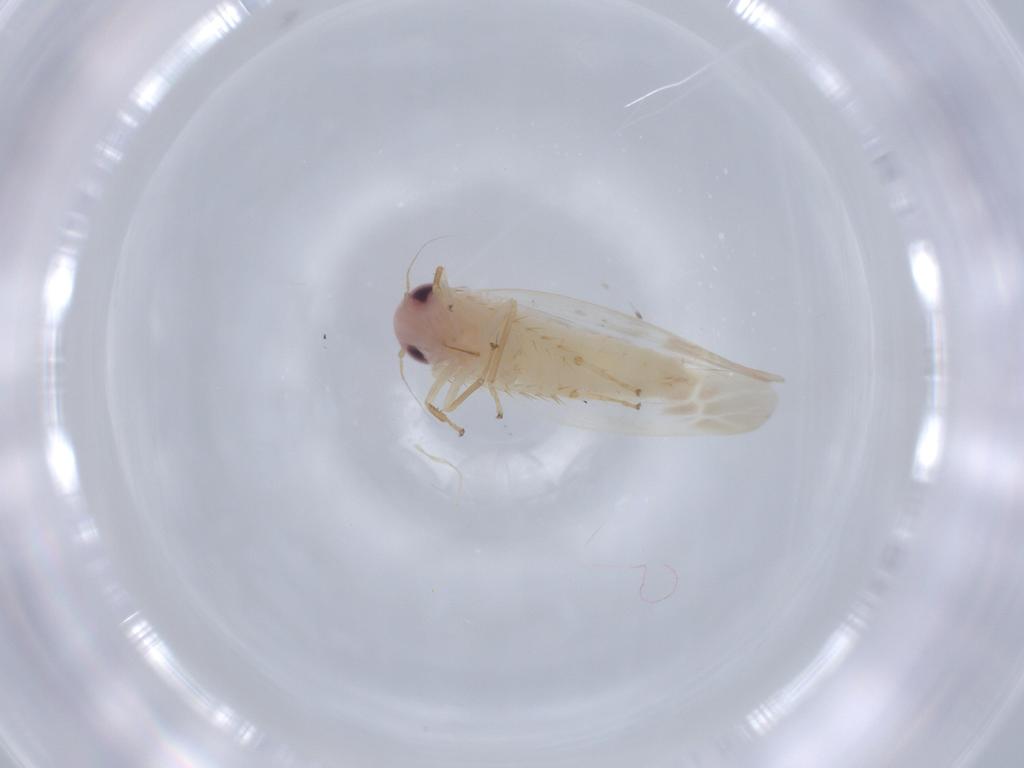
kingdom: Animalia
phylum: Arthropoda
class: Insecta
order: Hemiptera
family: Cicadellidae
